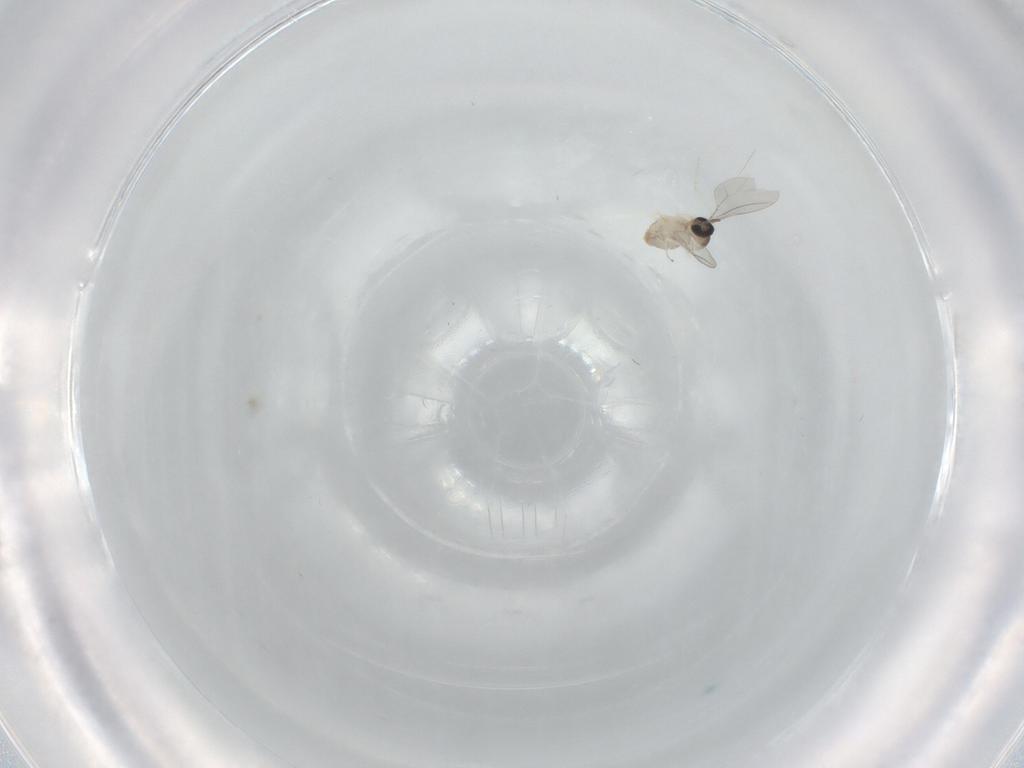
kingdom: Animalia
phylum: Arthropoda
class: Insecta
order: Diptera
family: Cecidomyiidae
